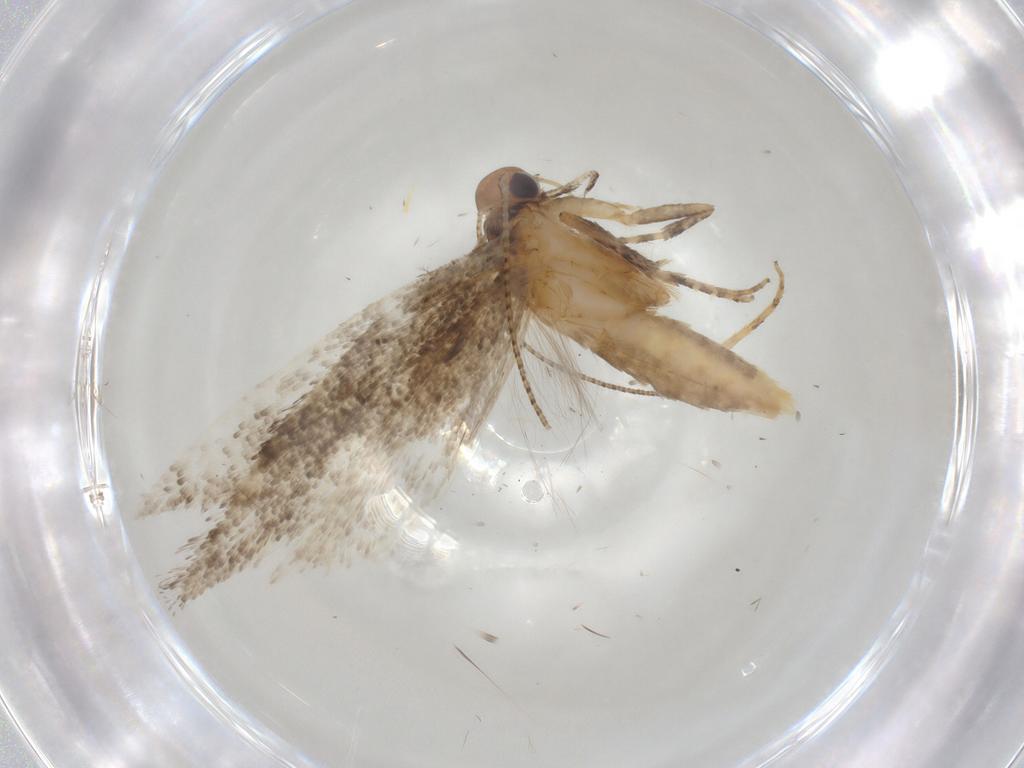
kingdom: Animalia
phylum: Arthropoda
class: Insecta
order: Lepidoptera
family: Gelechiidae
